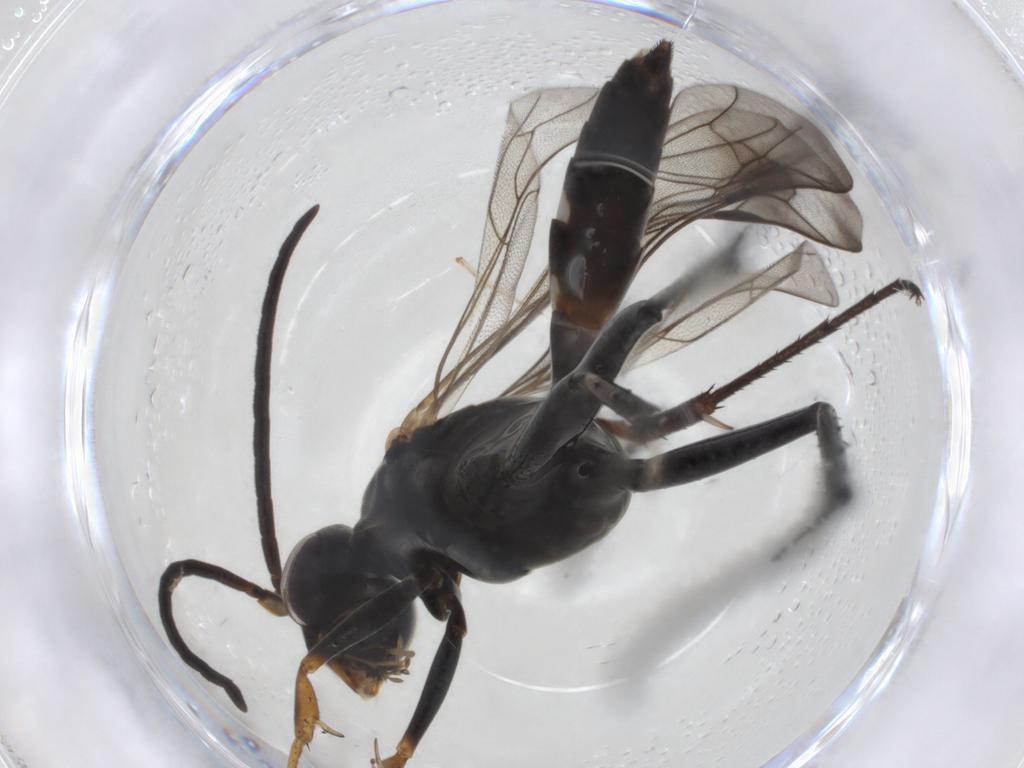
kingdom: Animalia
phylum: Arthropoda
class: Insecta
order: Hymenoptera
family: Pompilidae
